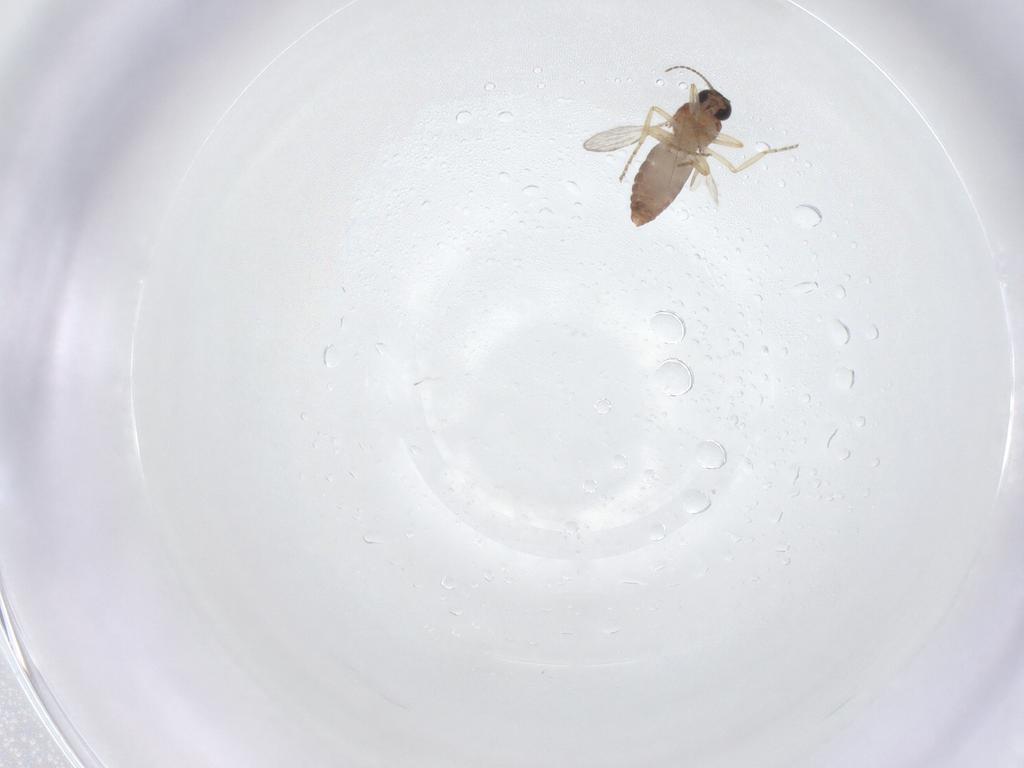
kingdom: Animalia
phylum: Arthropoda
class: Insecta
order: Diptera
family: Ceratopogonidae
